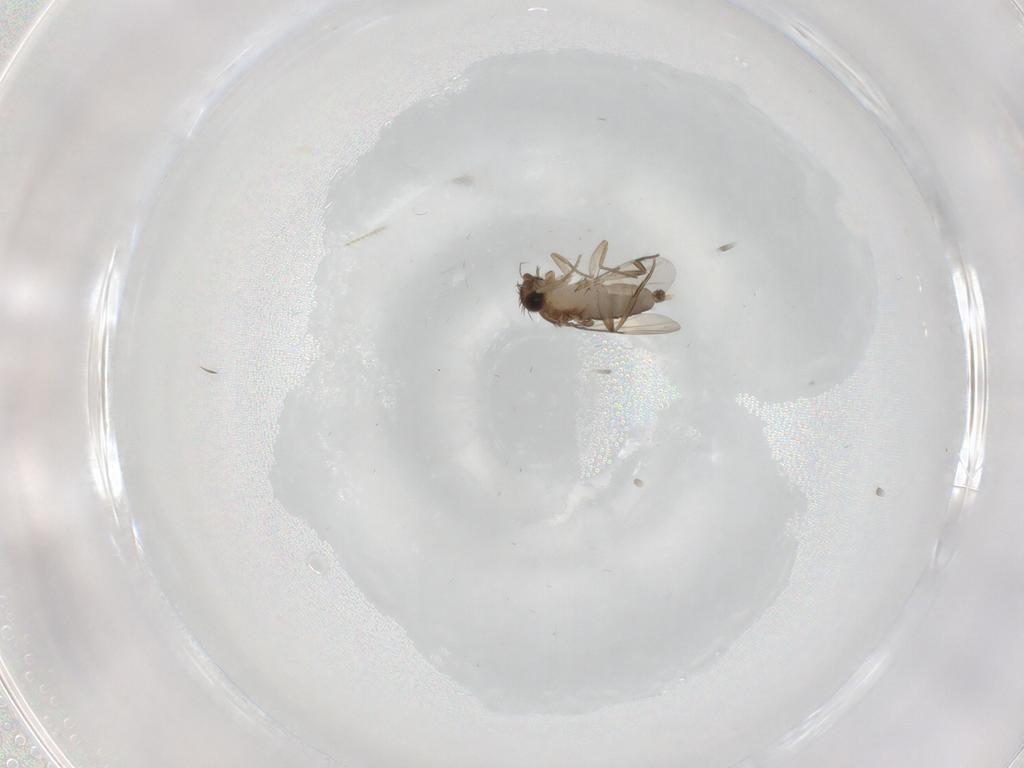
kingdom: Animalia
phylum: Arthropoda
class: Insecta
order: Diptera
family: Phoridae
